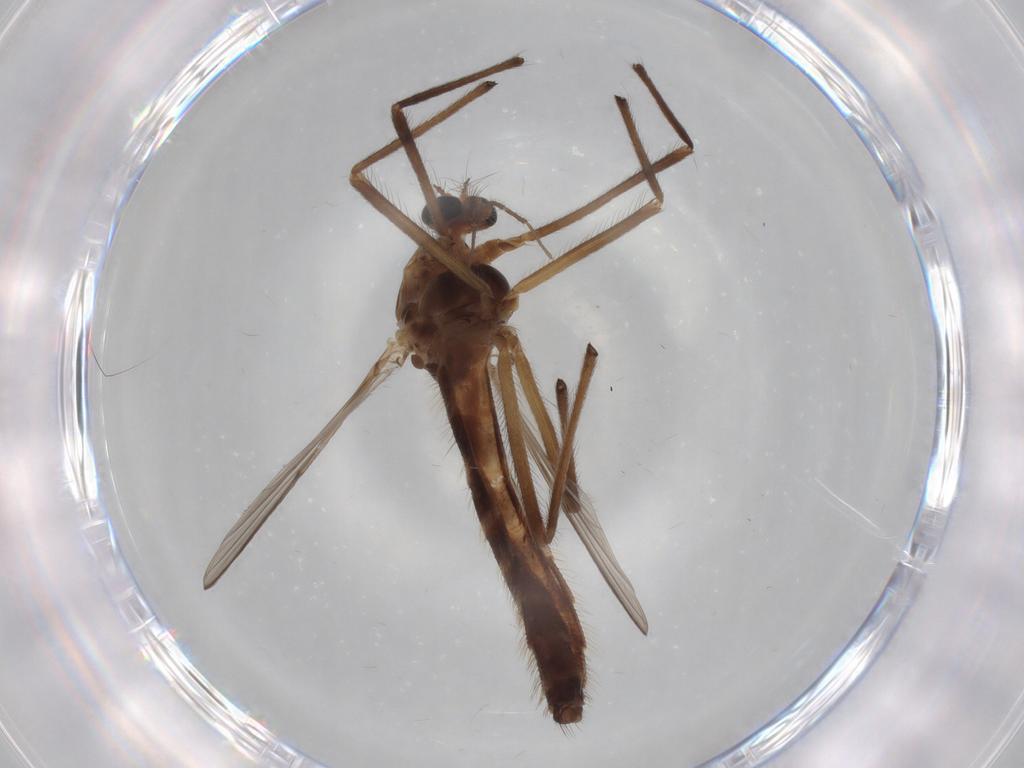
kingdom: Animalia
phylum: Arthropoda
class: Insecta
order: Diptera
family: Chironomidae
